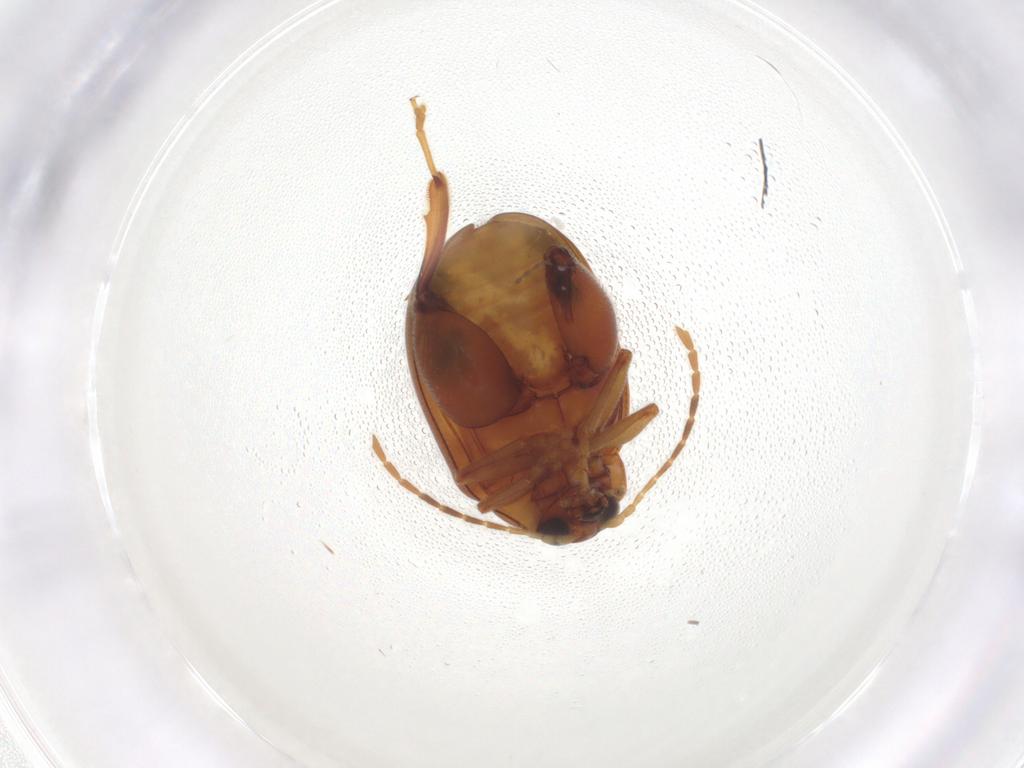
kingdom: Animalia
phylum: Arthropoda
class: Insecta
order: Coleoptera
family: Chrysomelidae
